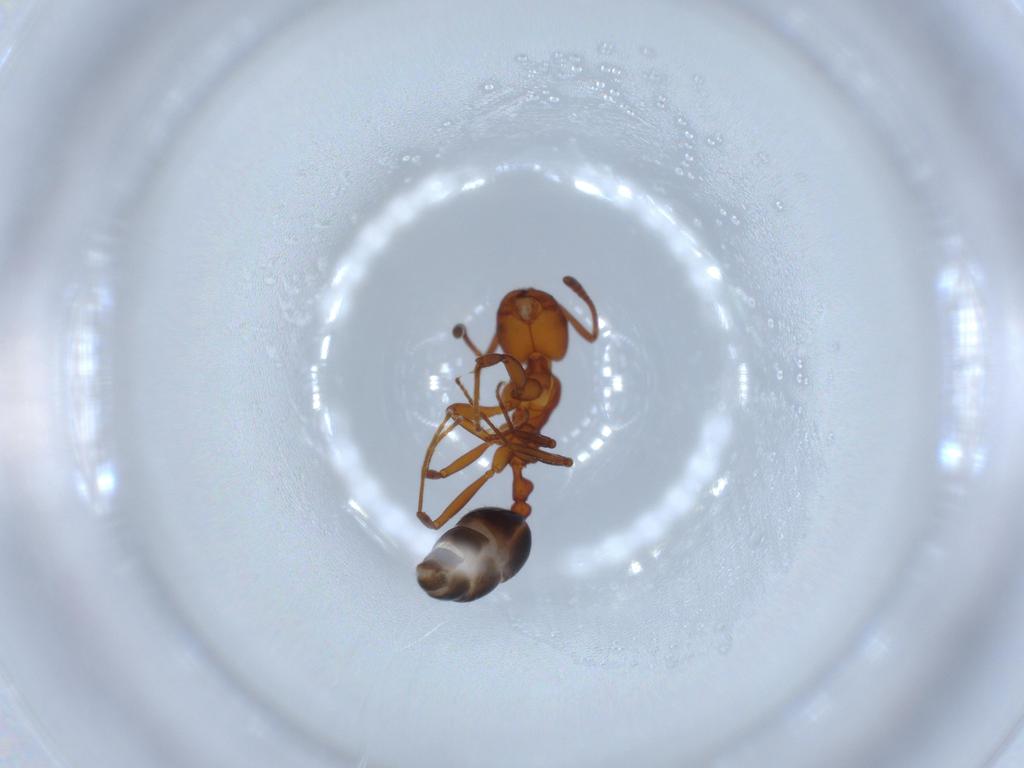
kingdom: Animalia
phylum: Arthropoda
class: Insecta
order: Hymenoptera
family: Formicidae
